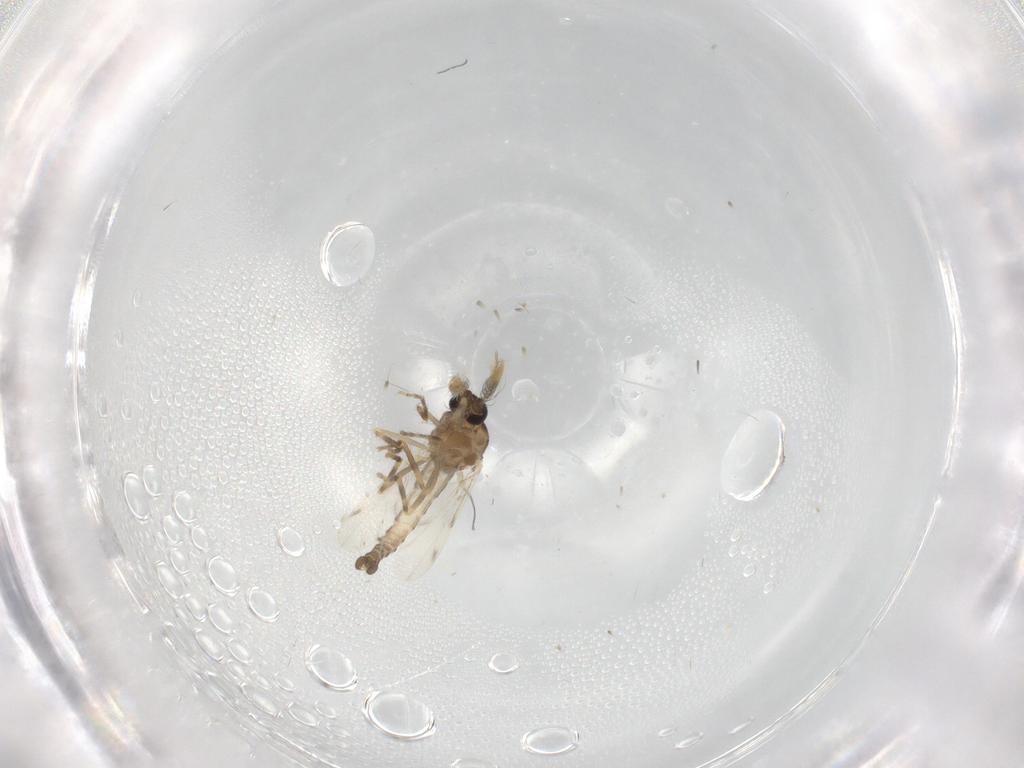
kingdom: Animalia
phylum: Arthropoda
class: Insecta
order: Diptera
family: Ceratopogonidae
